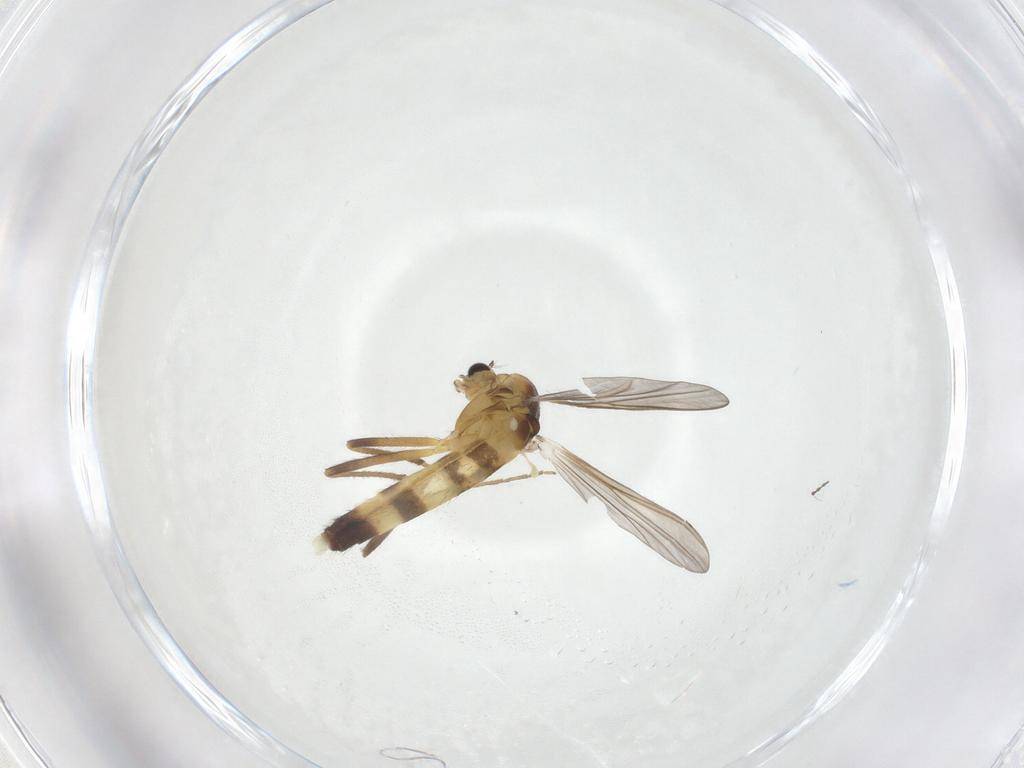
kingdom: Animalia
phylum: Arthropoda
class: Insecta
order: Diptera
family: Chironomidae
